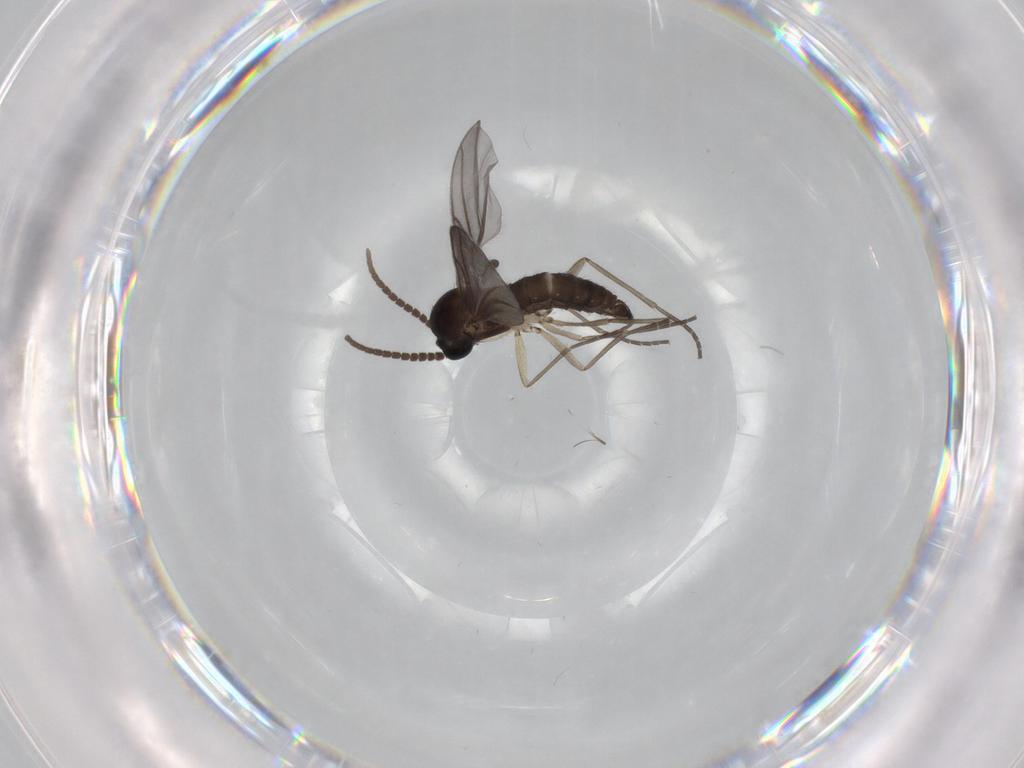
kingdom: Animalia
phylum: Arthropoda
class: Insecta
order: Diptera
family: Sciaridae
